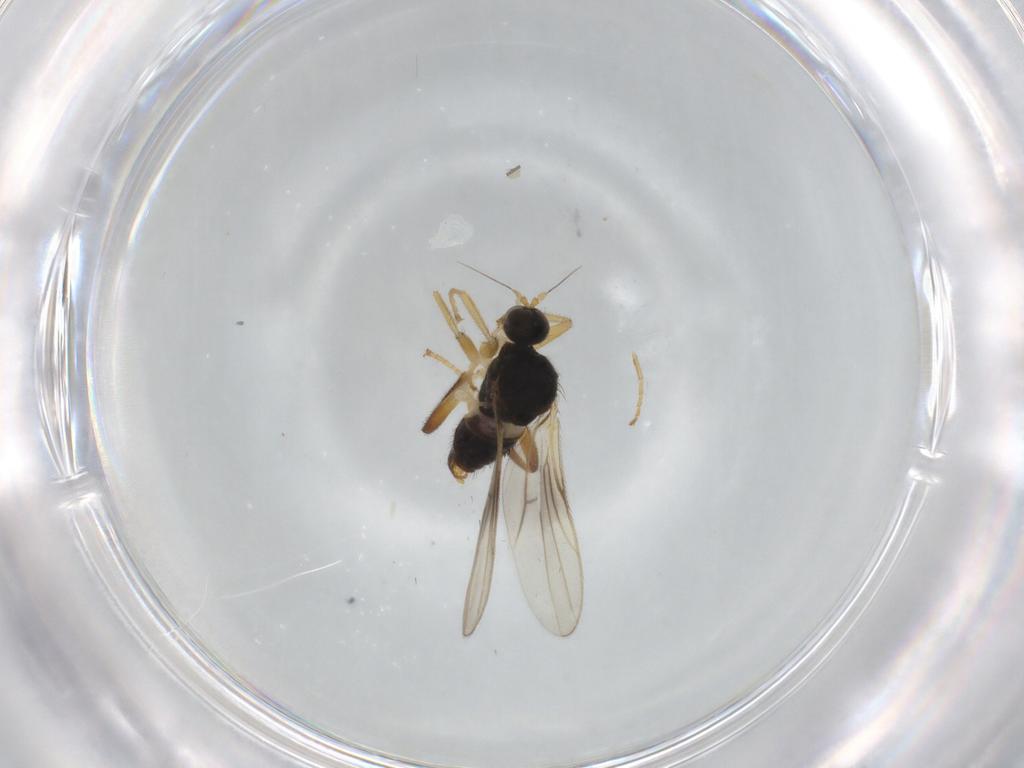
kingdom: Animalia
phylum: Arthropoda
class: Insecta
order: Diptera
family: Hybotidae
